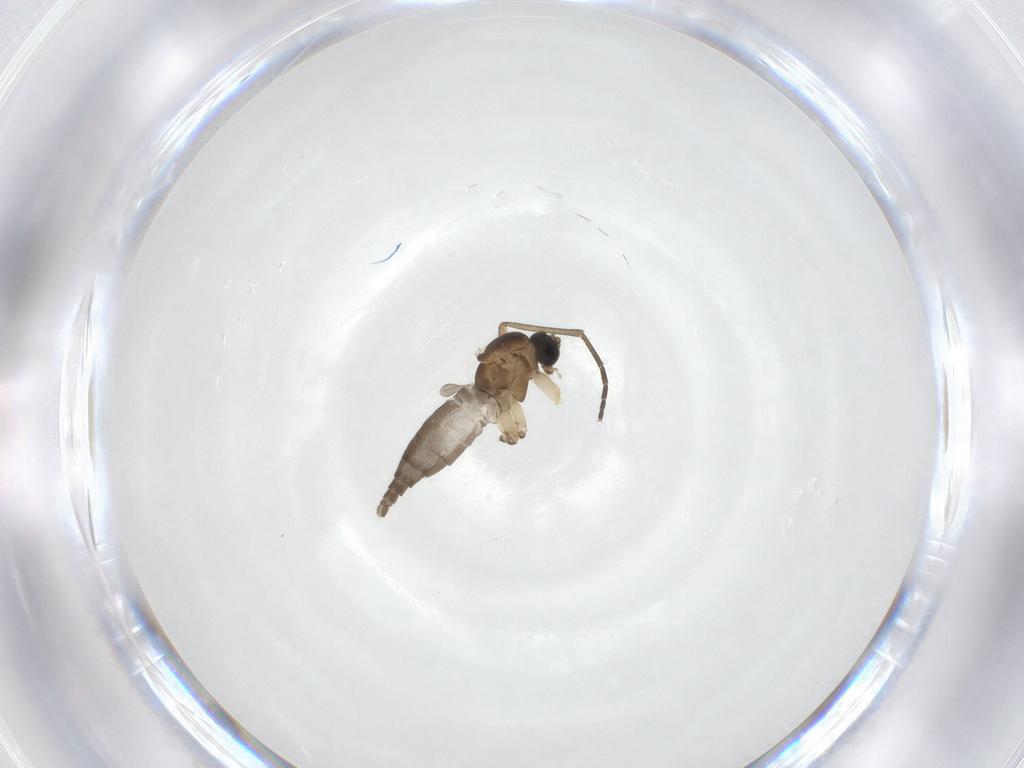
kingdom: Animalia
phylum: Arthropoda
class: Insecta
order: Diptera
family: Sciaridae
